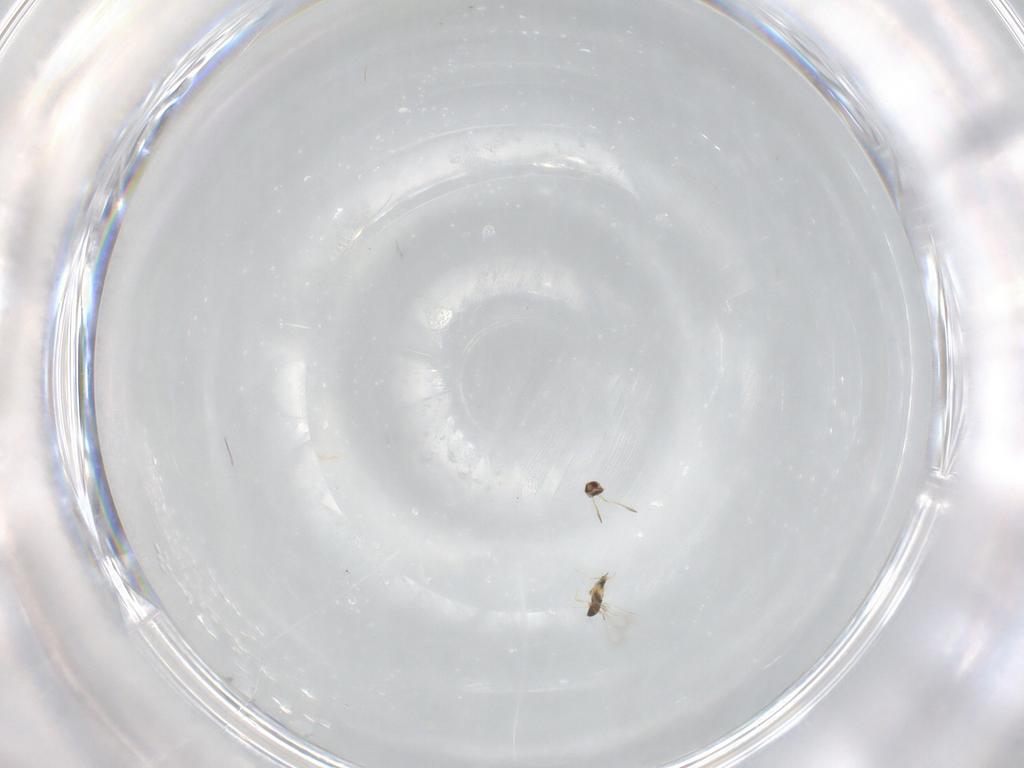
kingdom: Animalia
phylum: Arthropoda
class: Insecta
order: Hymenoptera
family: Mymaridae
